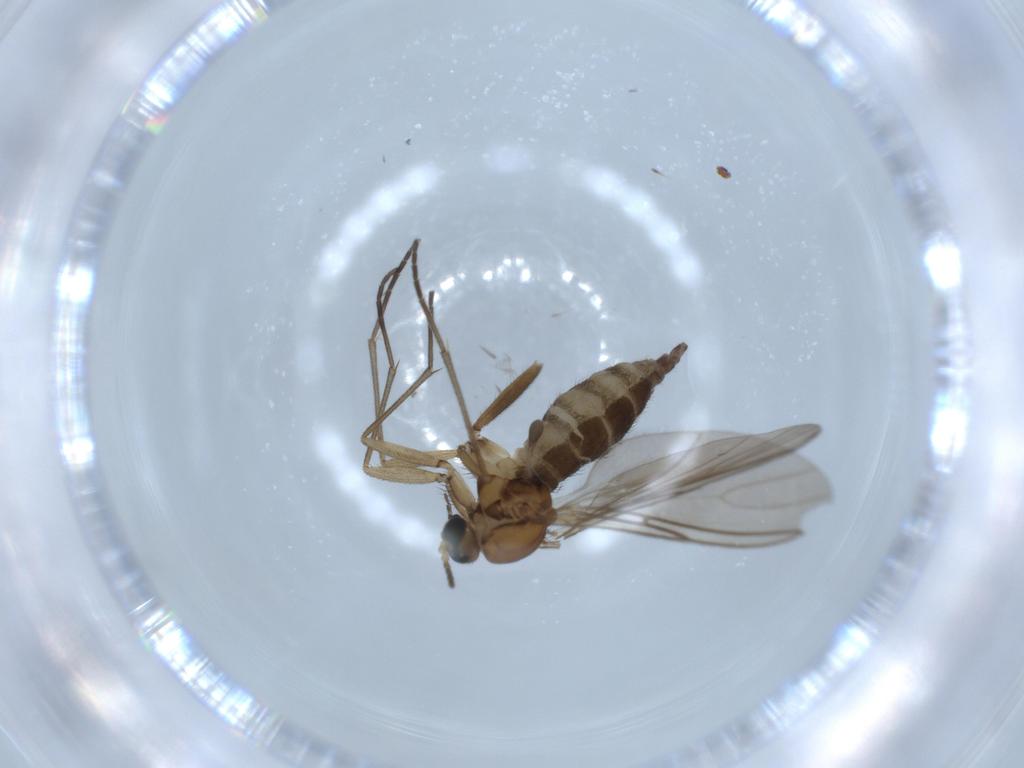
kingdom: Animalia
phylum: Arthropoda
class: Insecta
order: Diptera
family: Sciaridae
